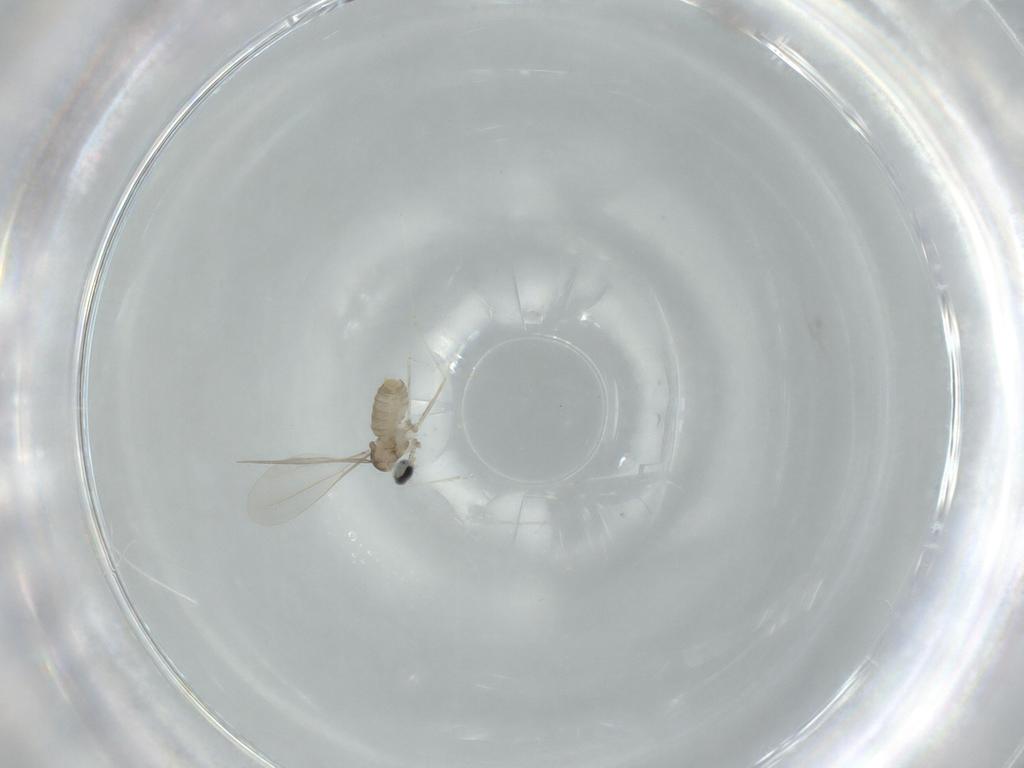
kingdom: Animalia
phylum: Arthropoda
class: Insecta
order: Diptera
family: Cecidomyiidae
